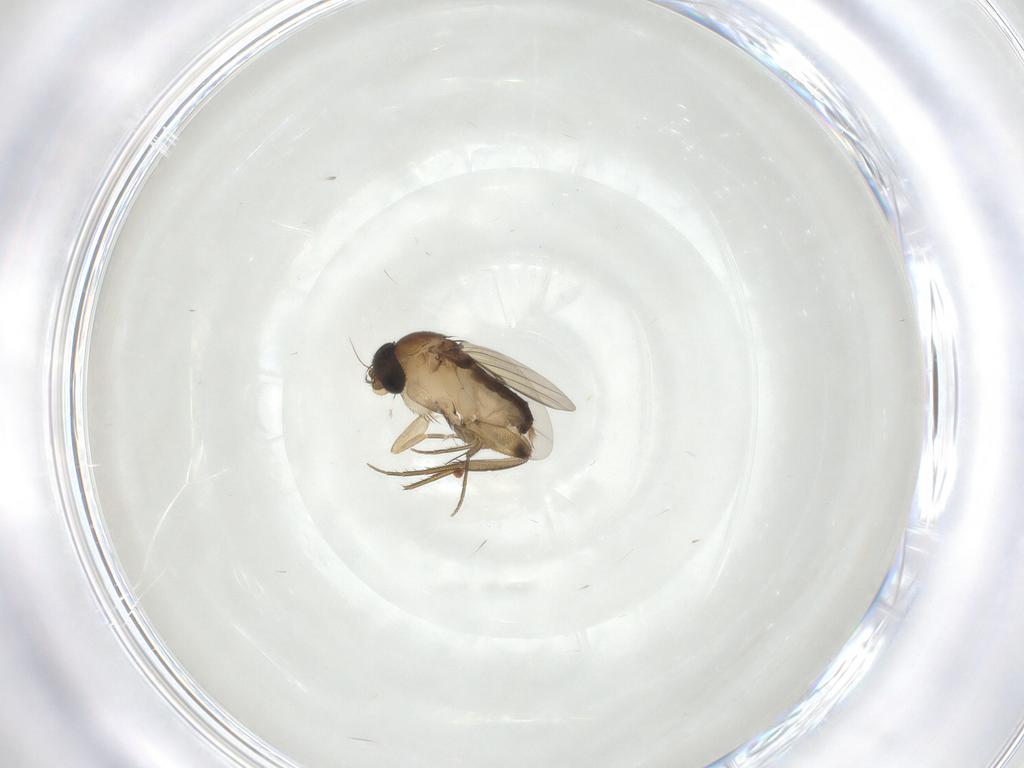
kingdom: Animalia
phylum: Arthropoda
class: Insecta
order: Diptera
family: Phoridae
